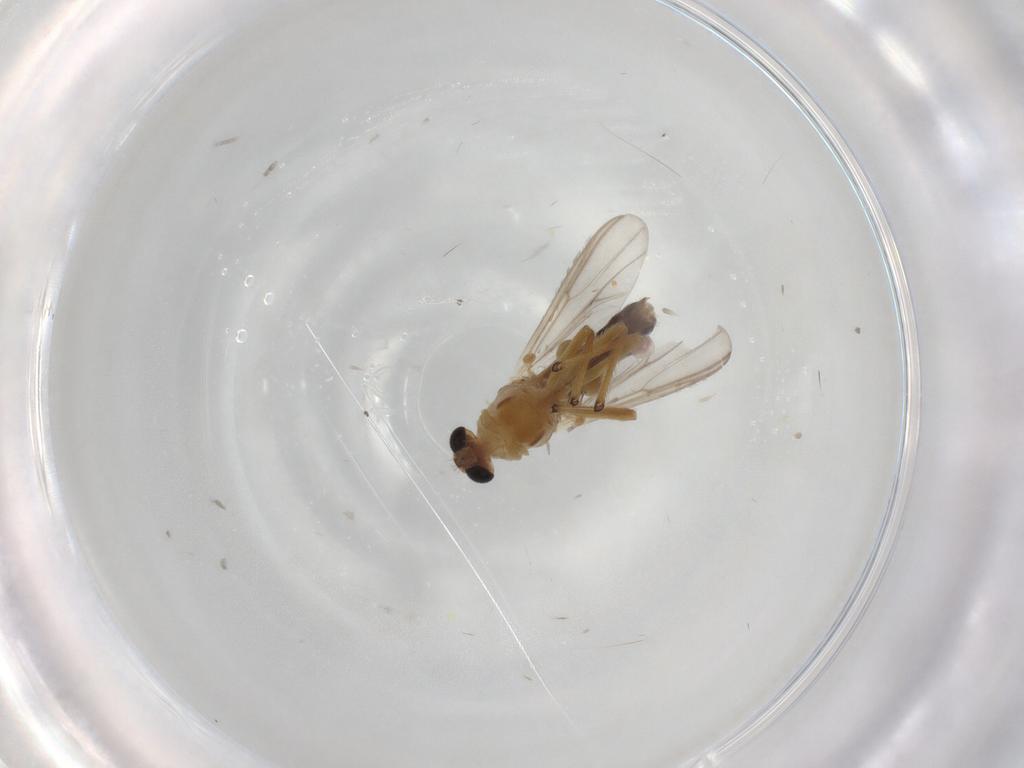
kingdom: Animalia
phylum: Arthropoda
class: Insecta
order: Diptera
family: Chironomidae
